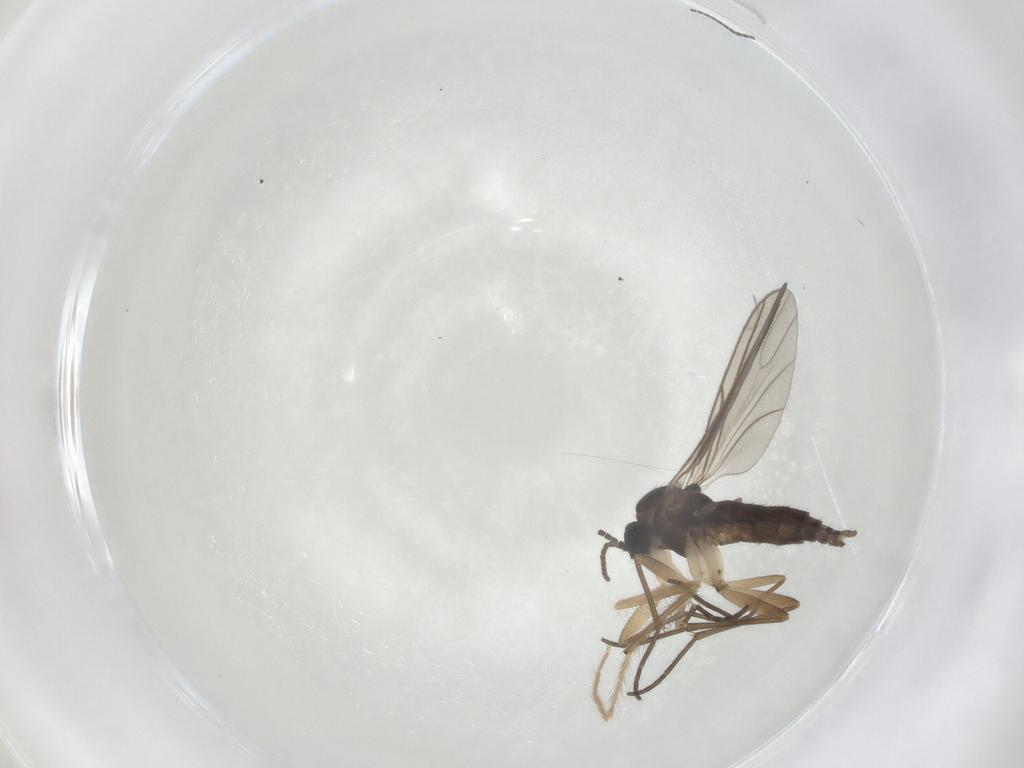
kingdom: Animalia
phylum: Arthropoda
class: Insecta
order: Diptera
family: Sciaridae
